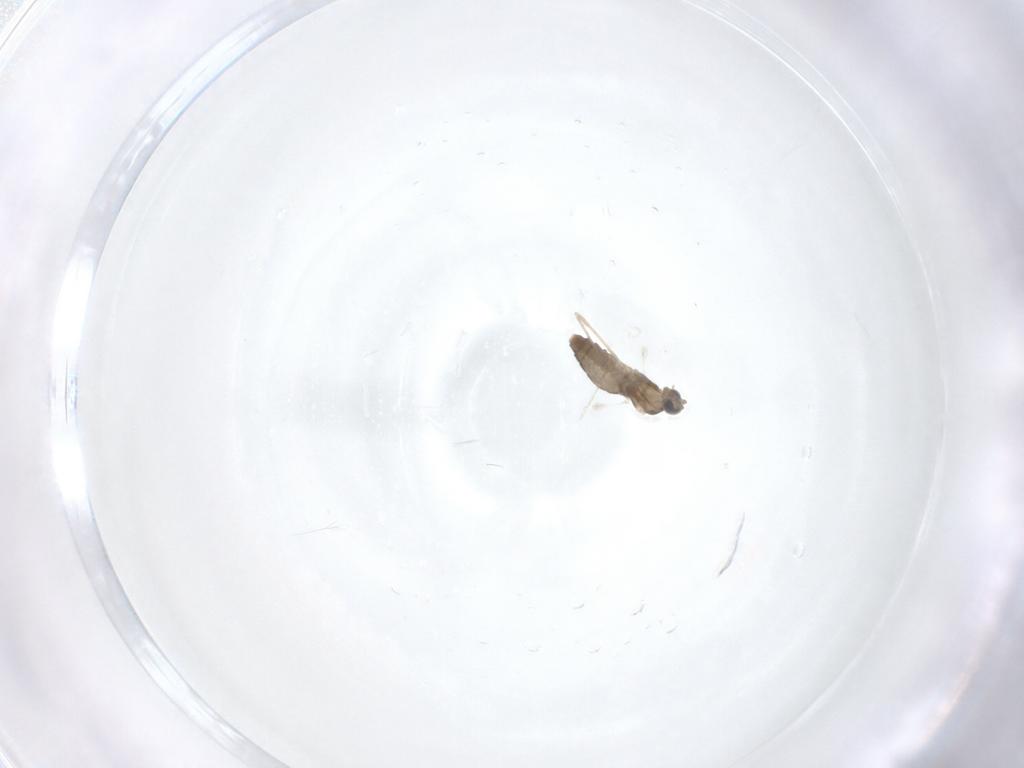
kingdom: Animalia
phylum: Arthropoda
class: Insecta
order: Diptera
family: Cecidomyiidae
